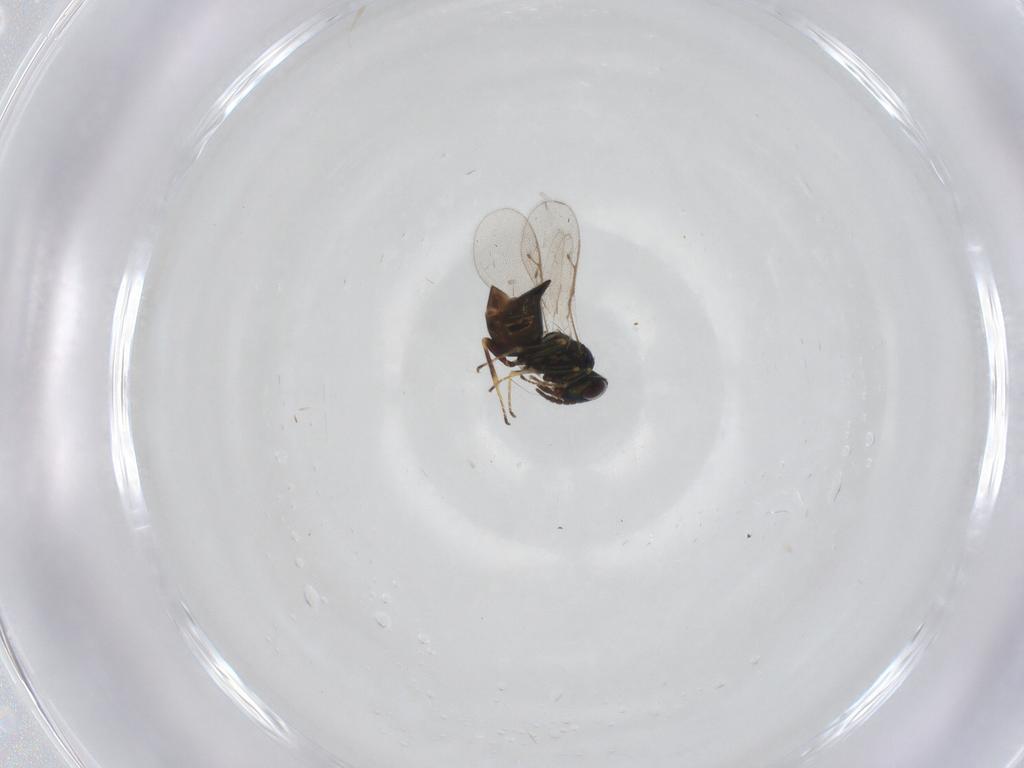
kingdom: Animalia
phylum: Arthropoda
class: Insecta
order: Hymenoptera
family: Pteromalidae
